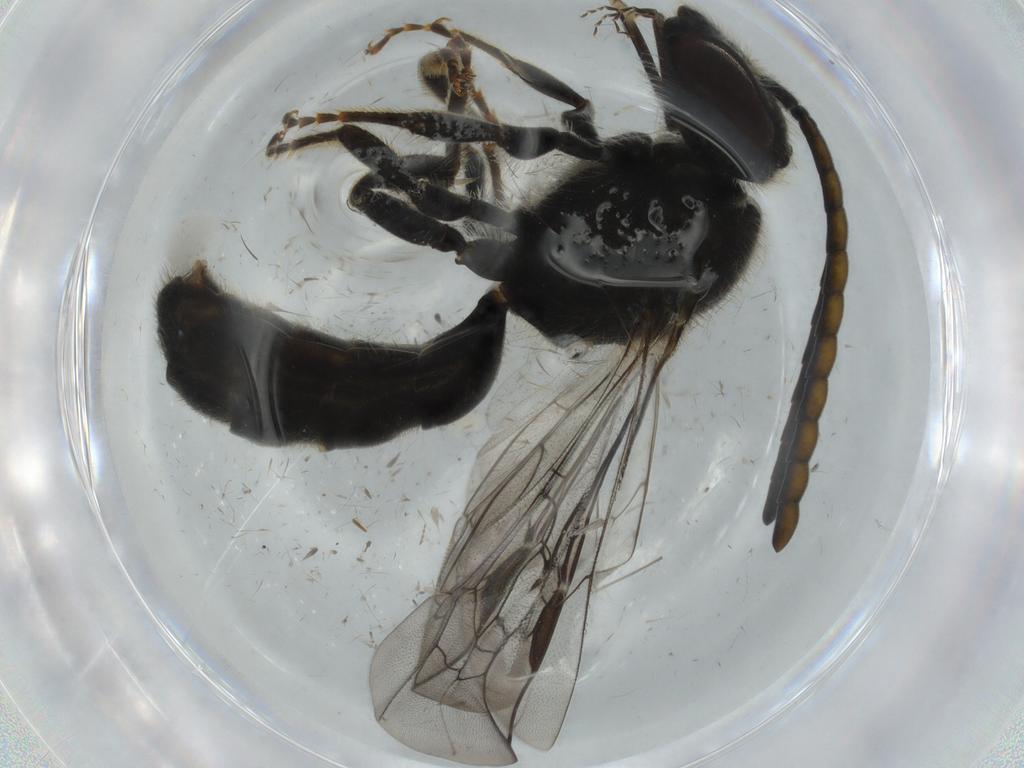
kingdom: Animalia
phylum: Arthropoda
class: Insecta
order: Hymenoptera
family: Halictidae
